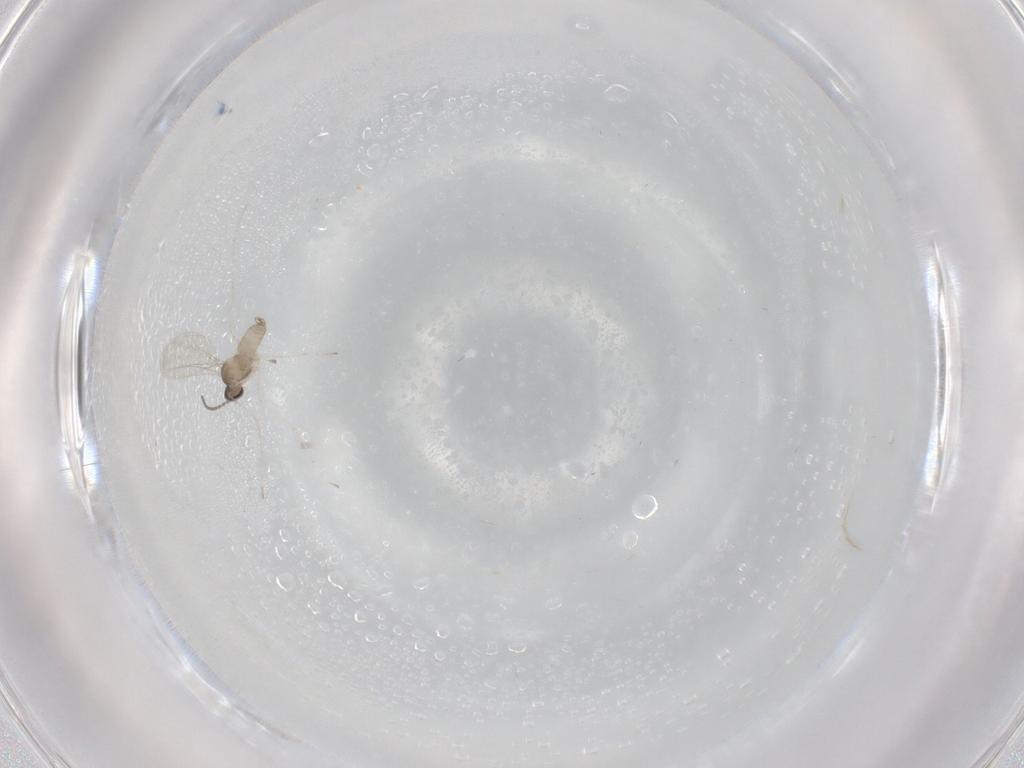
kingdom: Animalia
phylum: Arthropoda
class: Insecta
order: Diptera
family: Cecidomyiidae
